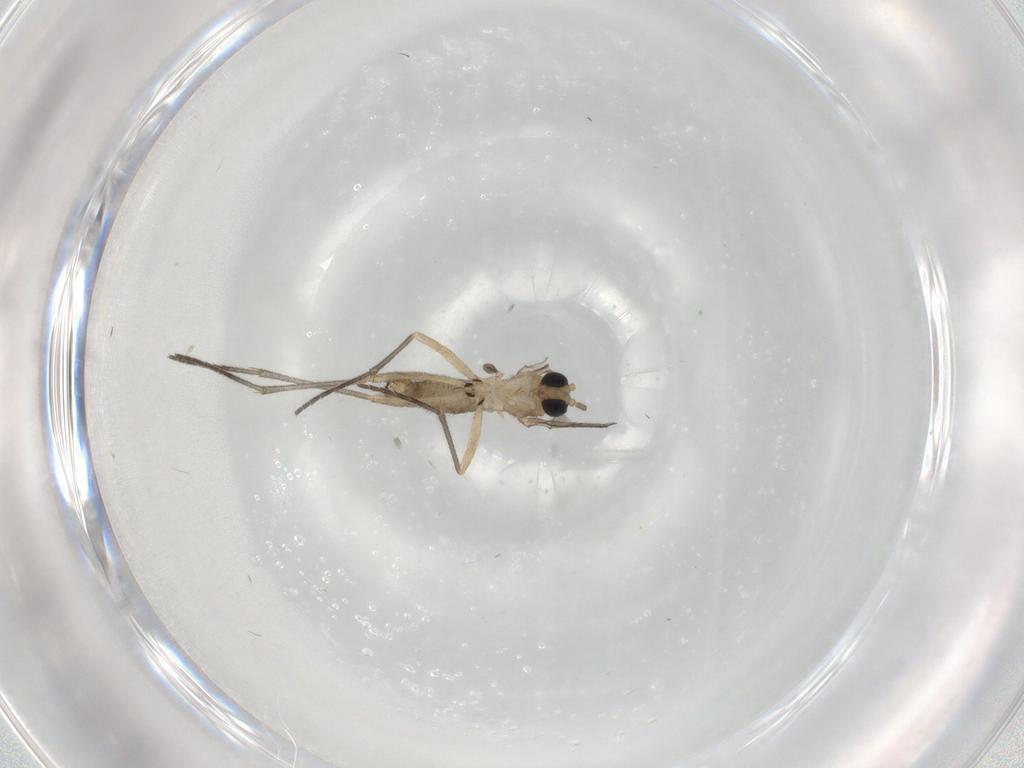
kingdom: Animalia
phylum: Arthropoda
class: Insecta
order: Diptera
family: Sciaridae
